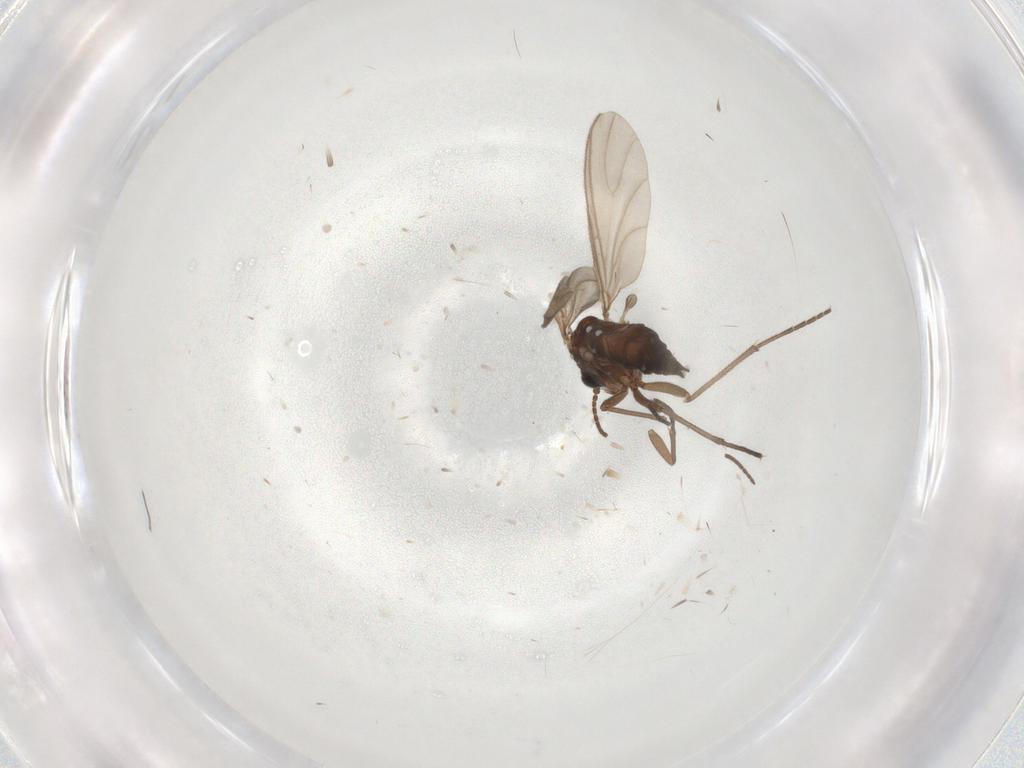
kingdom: Animalia
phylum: Arthropoda
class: Insecta
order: Diptera
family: Sciaridae
